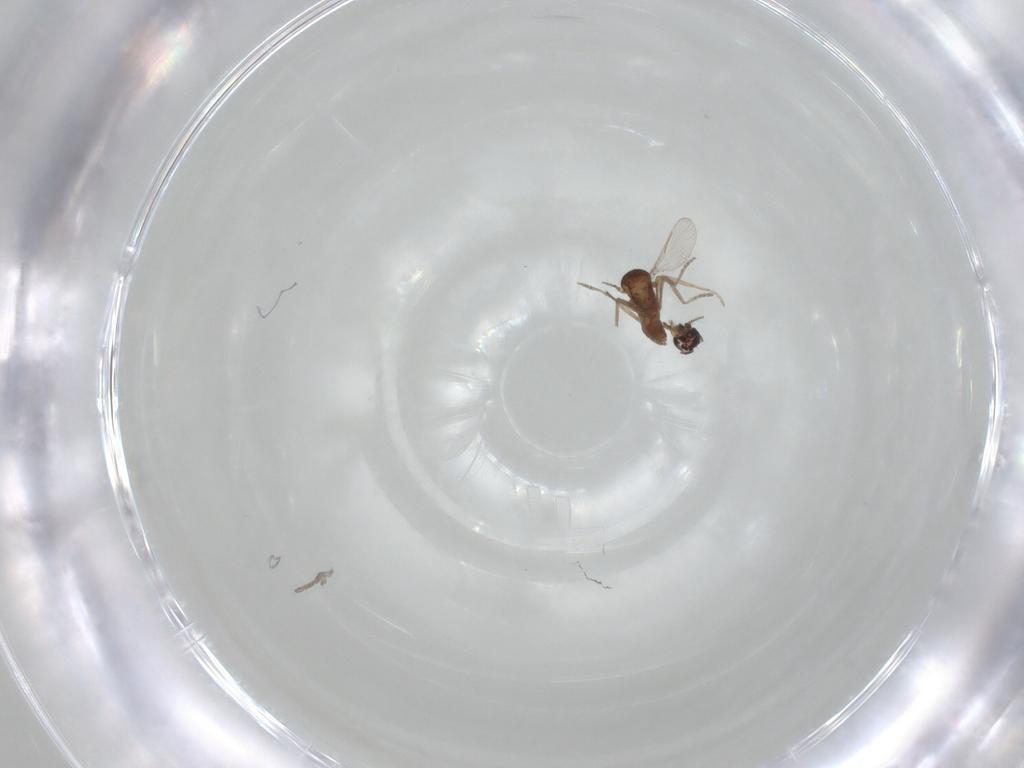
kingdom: Animalia
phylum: Arthropoda
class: Insecta
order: Diptera
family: Ceratopogonidae
